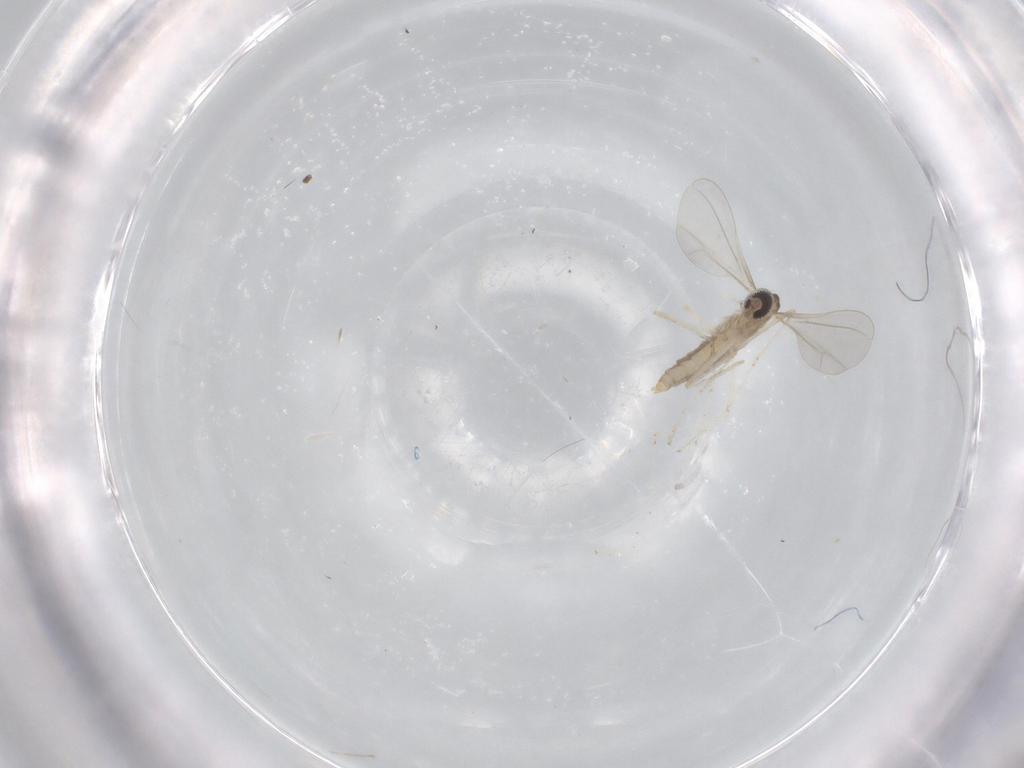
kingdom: Animalia
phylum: Arthropoda
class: Insecta
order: Diptera
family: Cecidomyiidae
